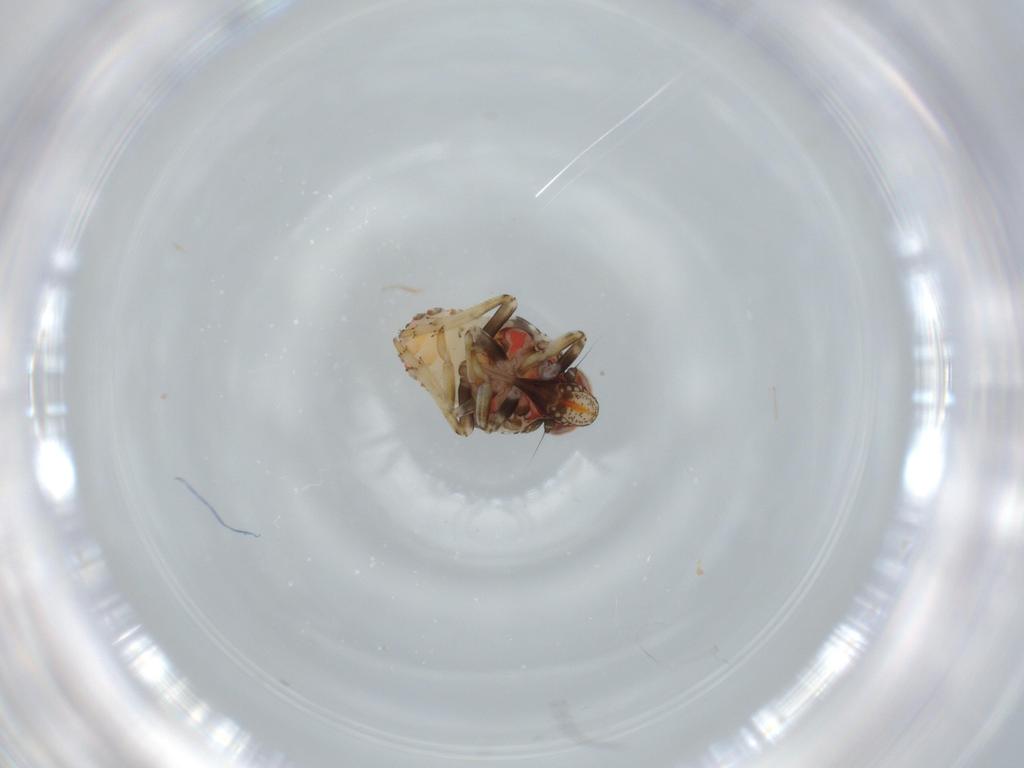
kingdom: Animalia
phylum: Arthropoda
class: Insecta
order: Hemiptera
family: Issidae
